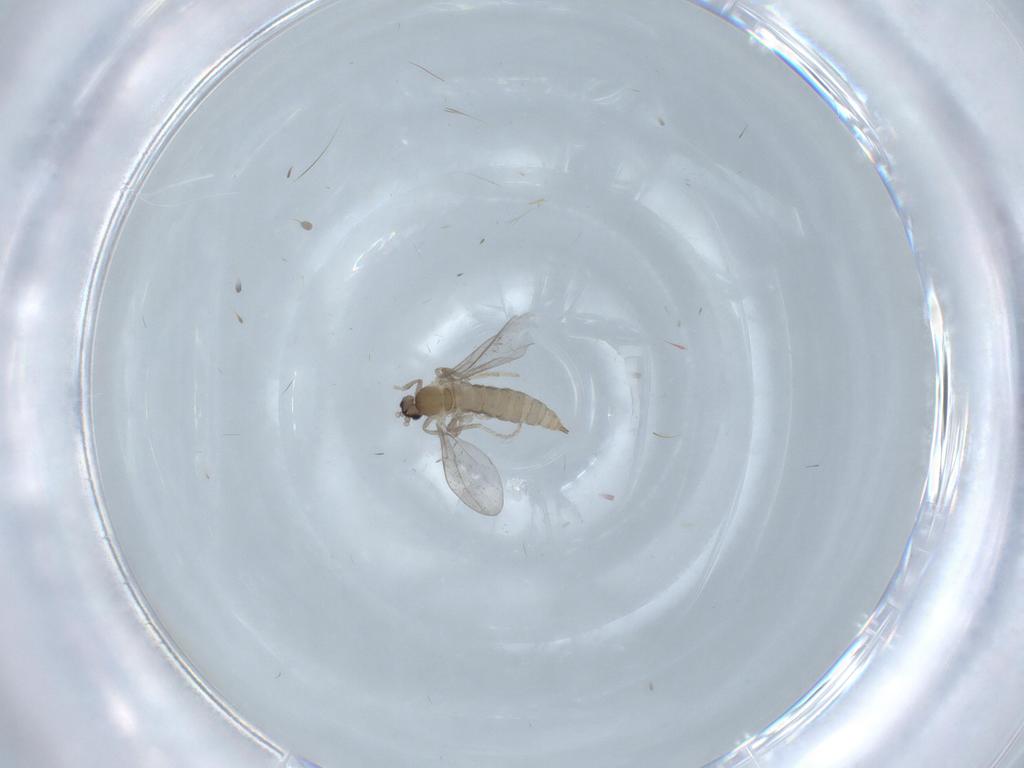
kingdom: Animalia
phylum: Arthropoda
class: Insecta
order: Diptera
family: Cecidomyiidae
